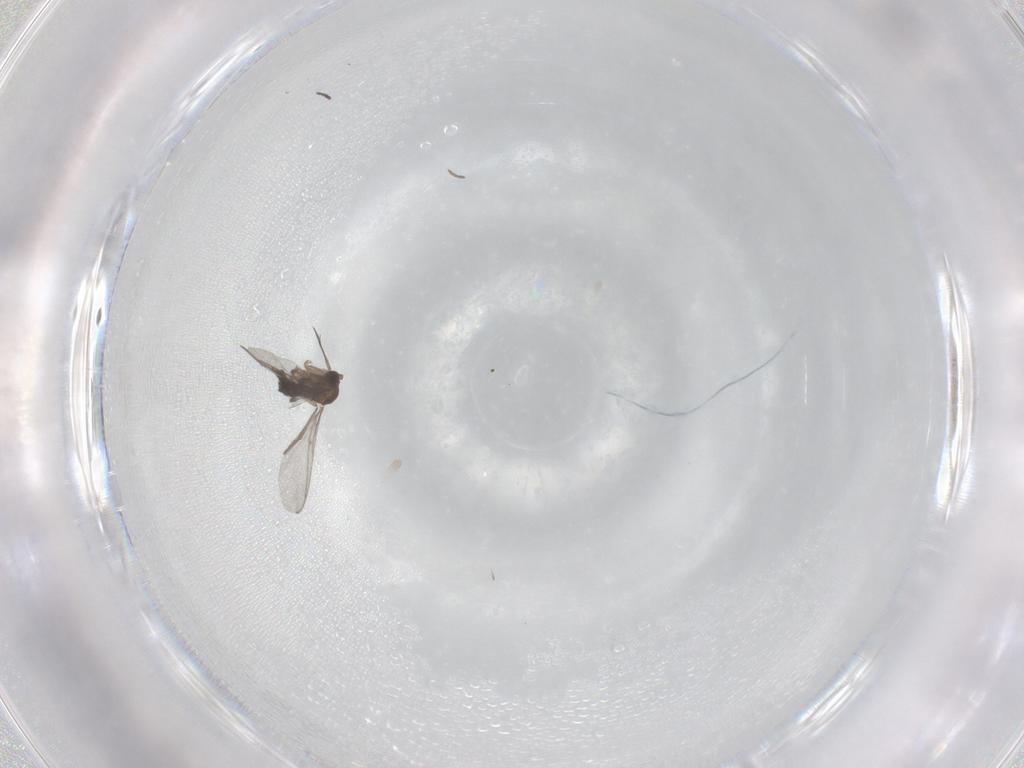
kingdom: Animalia
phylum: Arthropoda
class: Insecta
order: Diptera
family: Sciaridae
